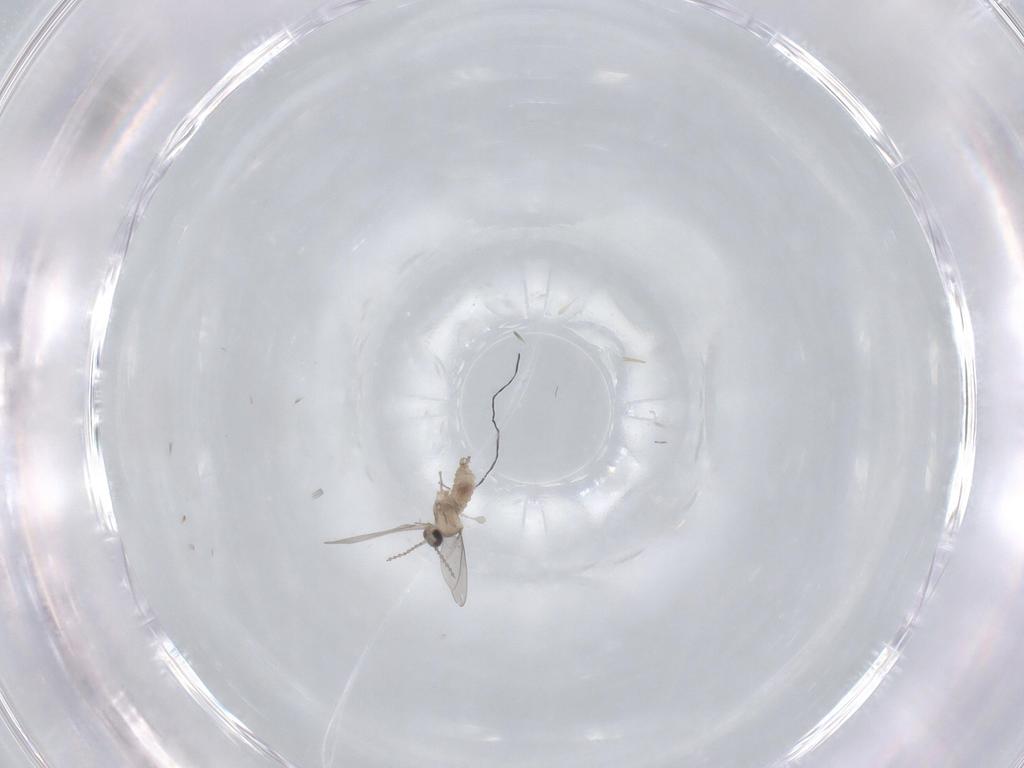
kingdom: Animalia
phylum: Arthropoda
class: Insecta
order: Diptera
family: Cecidomyiidae
